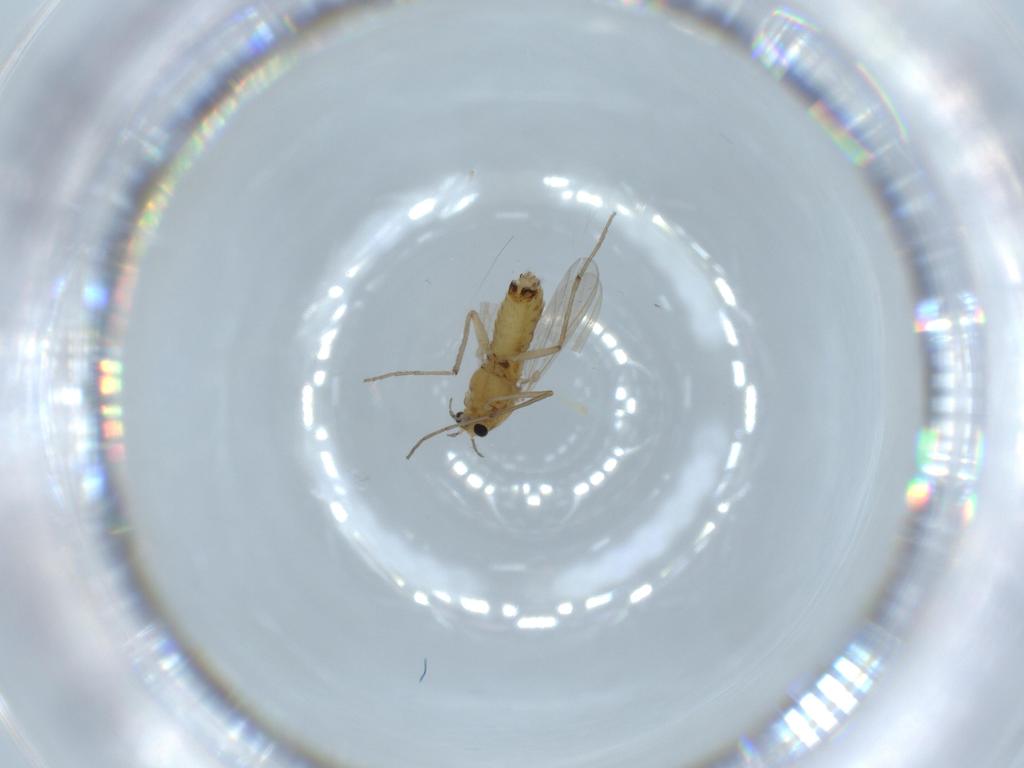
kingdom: Animalia
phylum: Arthropoda
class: Insecta
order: Diptera
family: Chironomidae
